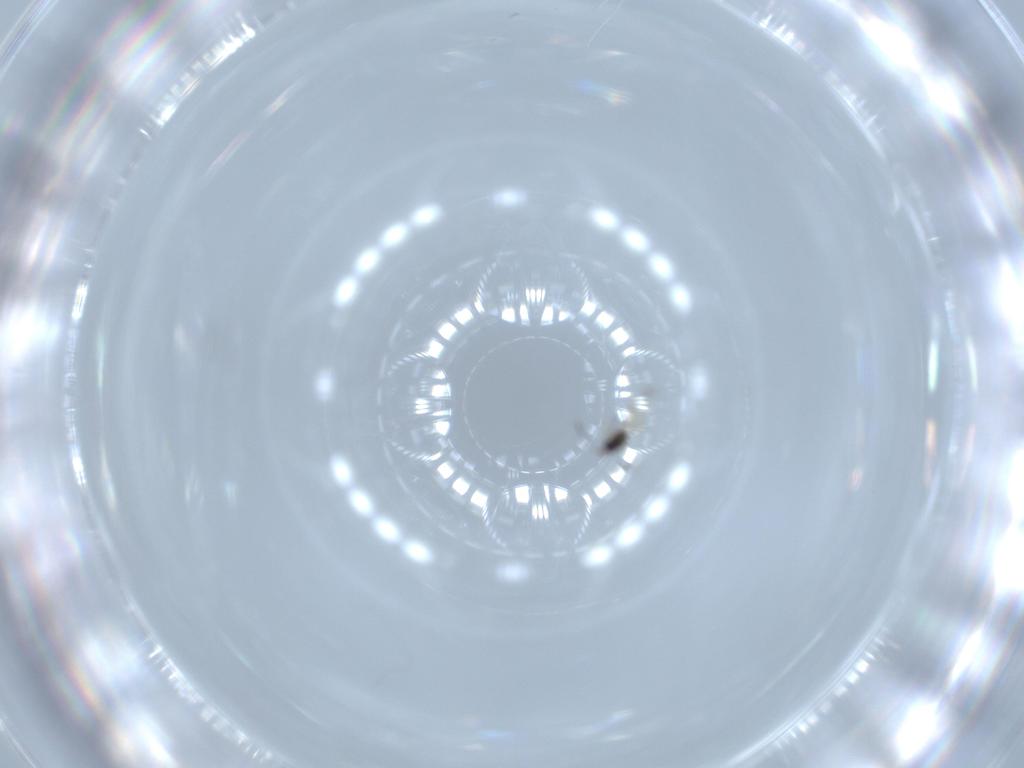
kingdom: Animalia
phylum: Arthropoda
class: Insecta
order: Hymenoptera
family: Mymaridae
